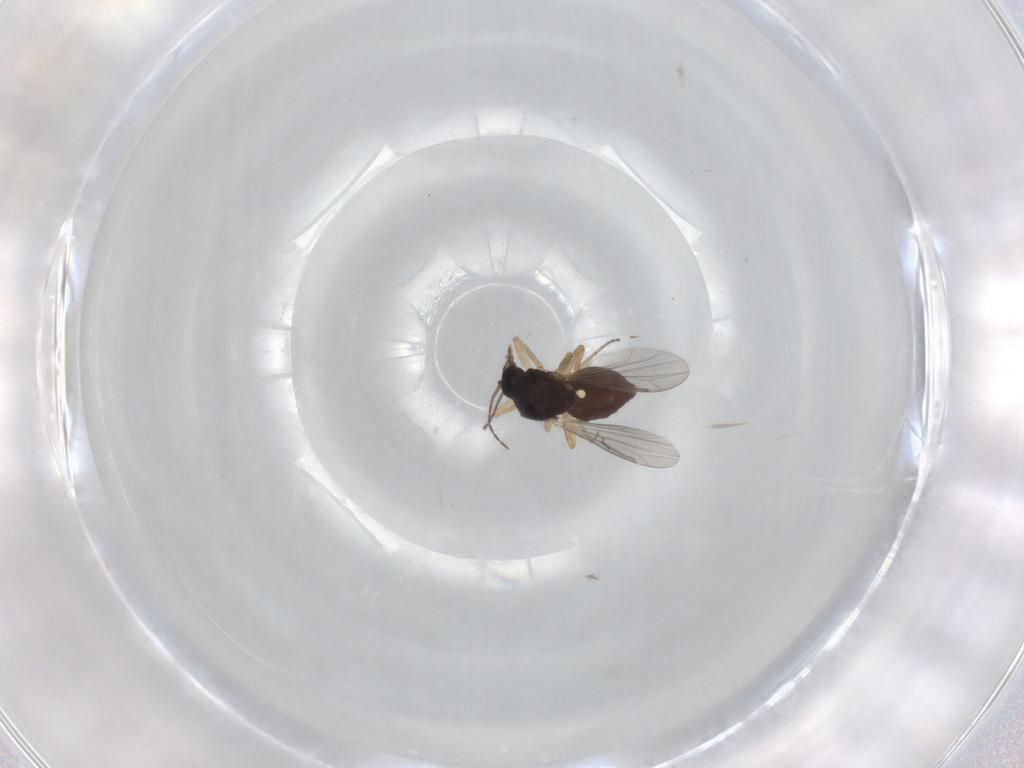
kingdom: Animalia
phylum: Arthropoda
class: Insecta
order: Diptera
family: Ceratopogonidae
